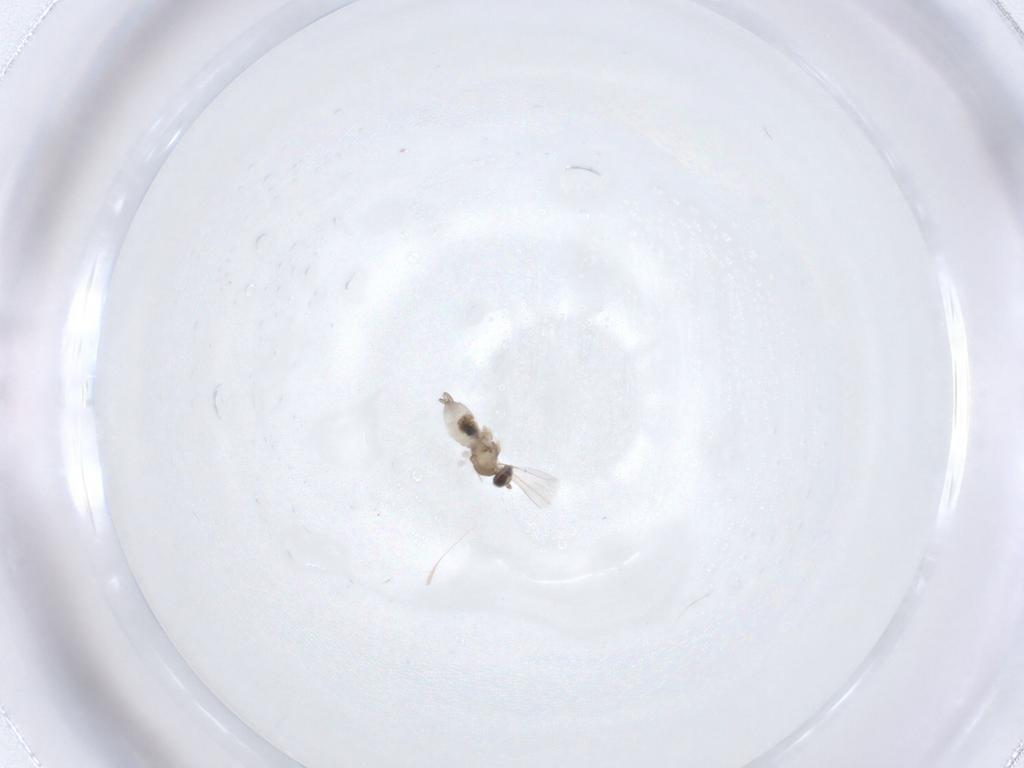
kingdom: Animalia
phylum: Arthropoda
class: Insecta
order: Diptera
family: Cecidomyiidae
